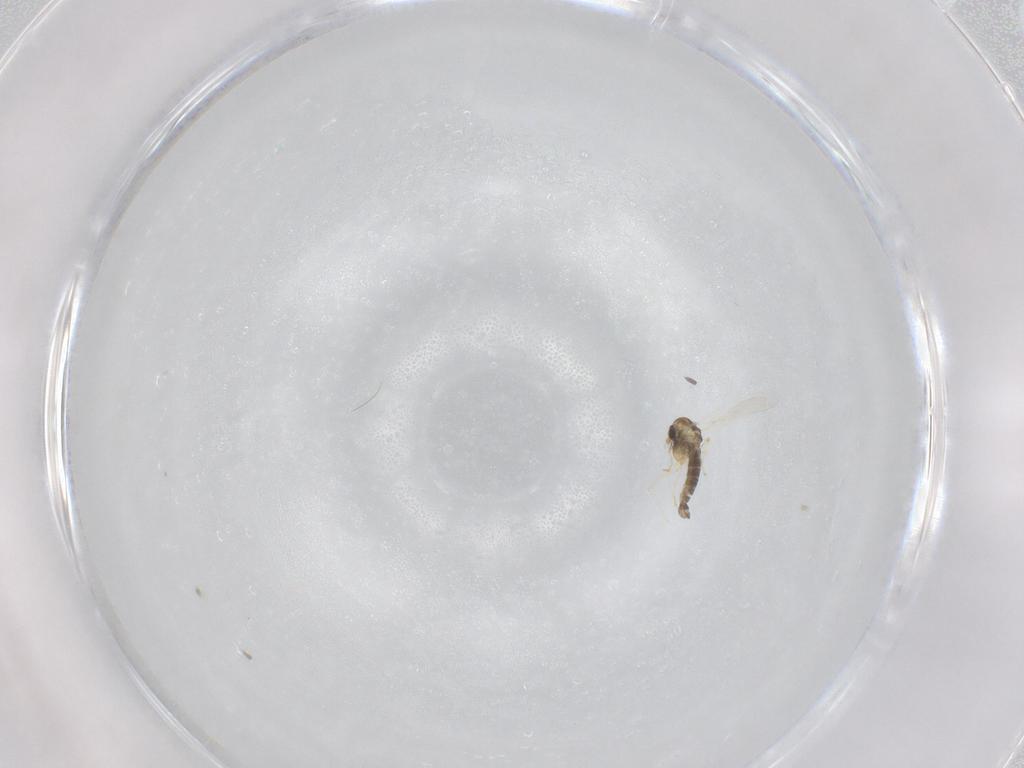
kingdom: Animalia
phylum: Arthropoda
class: Insecta
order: Diptera
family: Chironomidae
